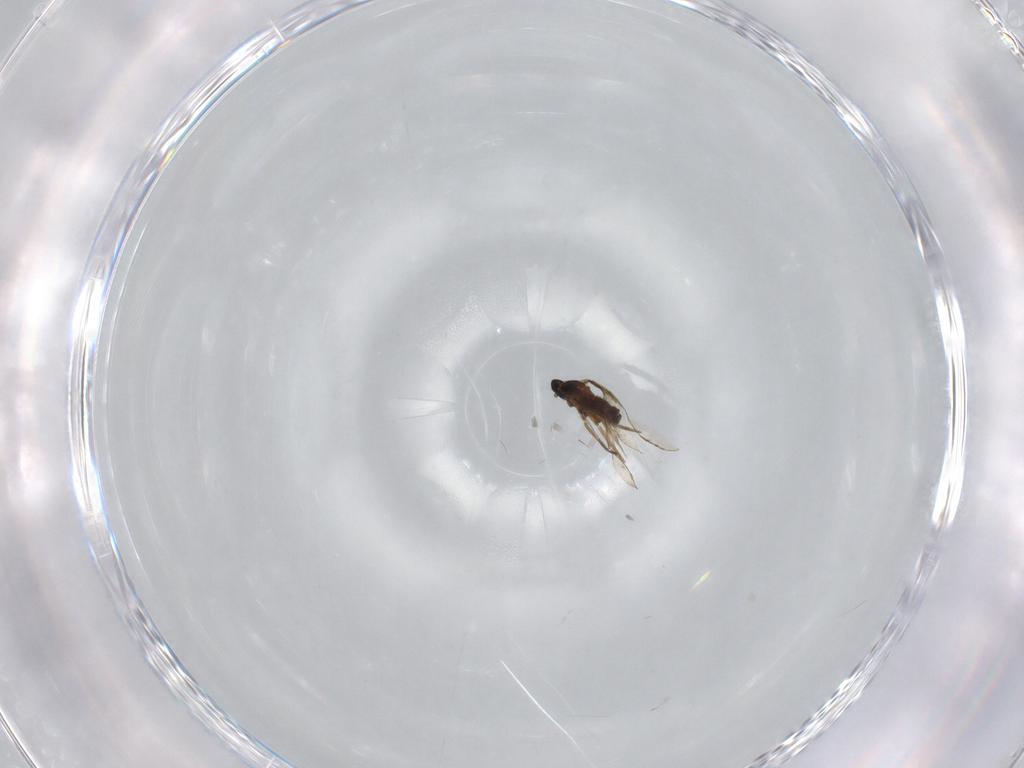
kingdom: Animalia
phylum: Arthropoda
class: Insecta
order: Diptera
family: Cecidomyiidae
